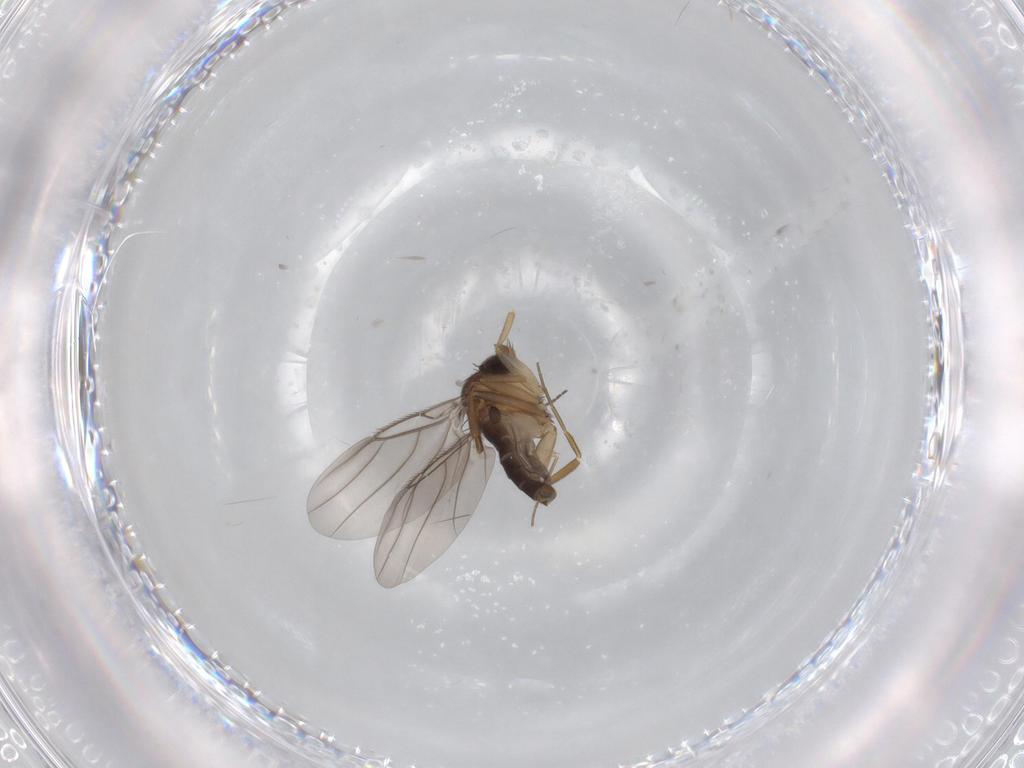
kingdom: Animalia
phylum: Arthropoda
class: Insecta
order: Diptera
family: Phoridae
